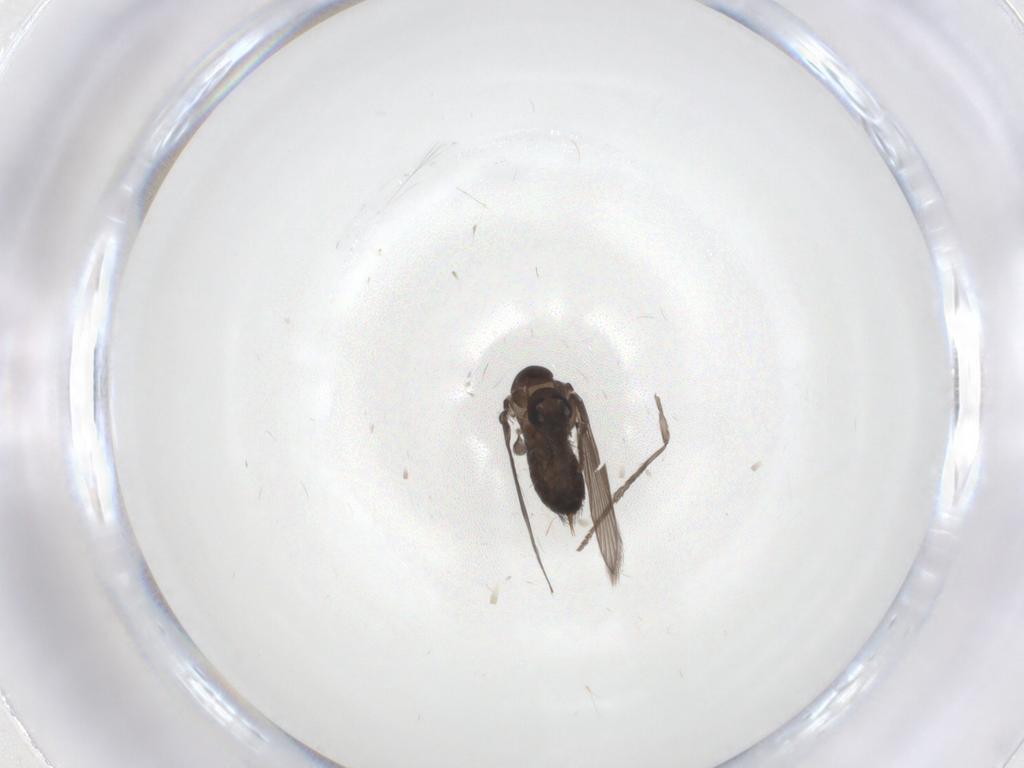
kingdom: Animalia
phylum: Arthropoda
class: Insecta
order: Diptera
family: Psychodidae
